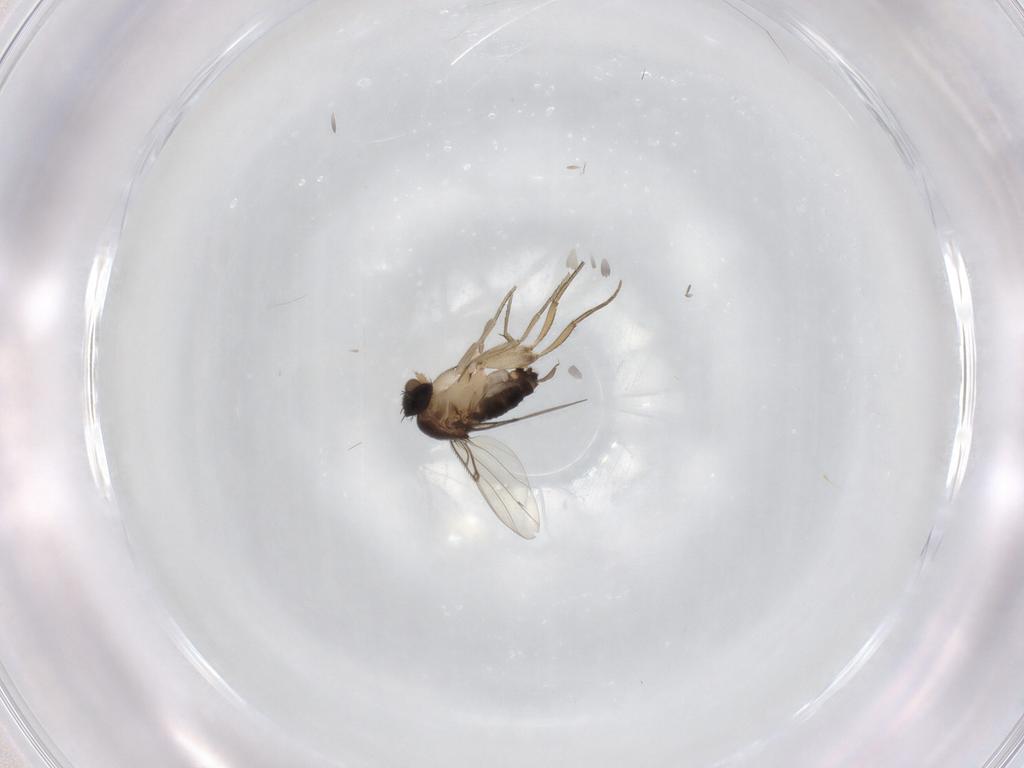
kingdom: Animalia
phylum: Arthropoda
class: Insecta
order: Diptera
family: Phoridae
